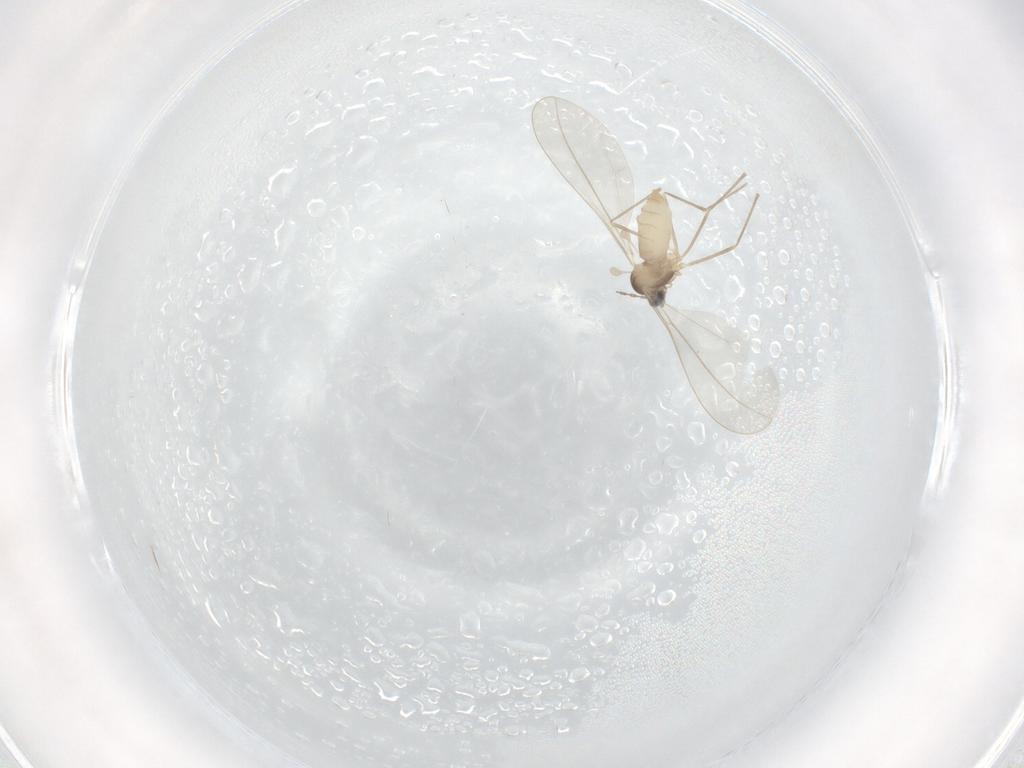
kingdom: Animalia
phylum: Arthropoda
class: Insecta
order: Diptera
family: Cecidomyiidae
